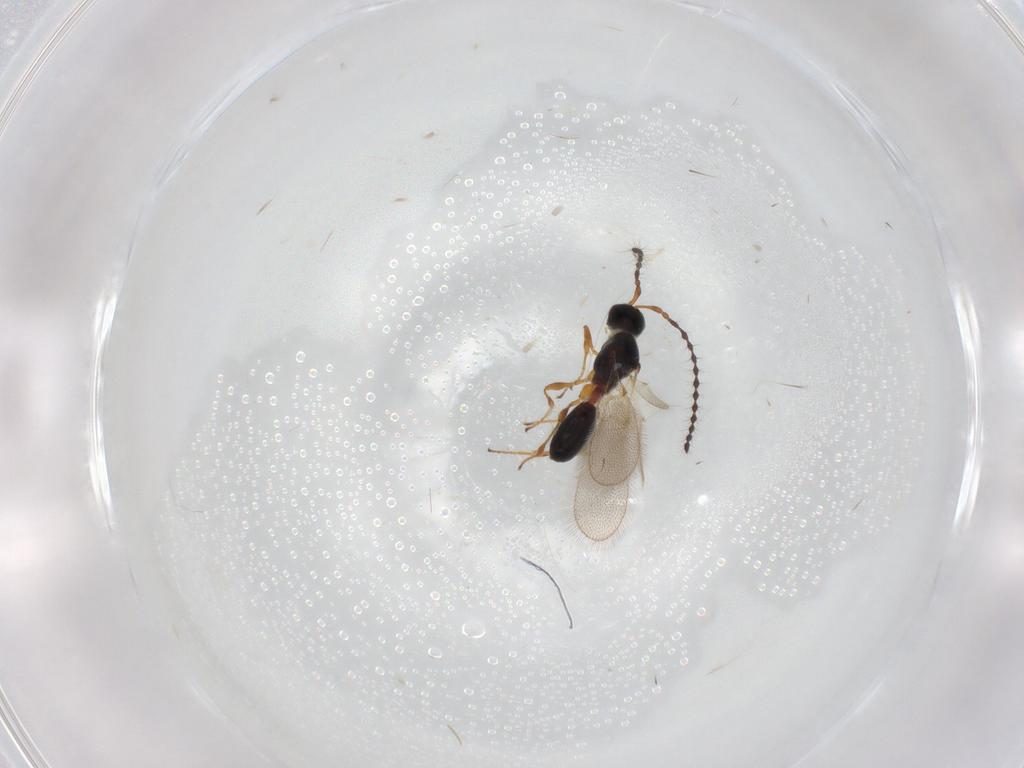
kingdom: Animalia
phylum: Arthropoda
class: Insecta
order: Hymenoptera
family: Diapriidae
